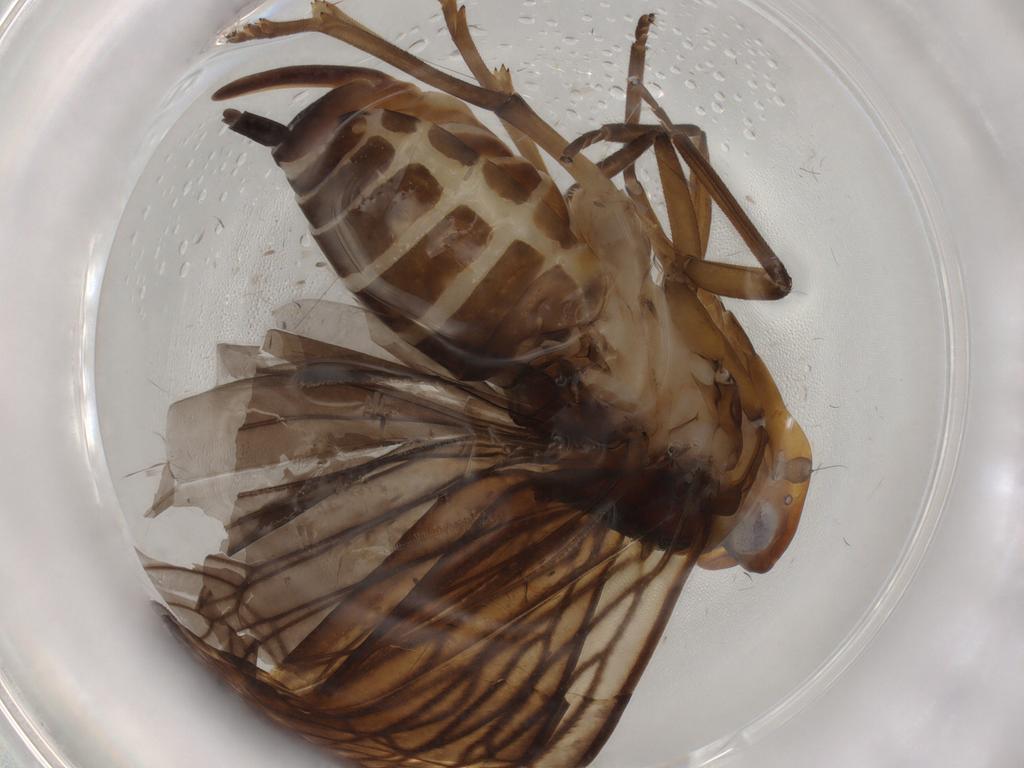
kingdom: Animalia
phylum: Arthropoda
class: Insecta
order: Hemiptera
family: Cixiidae
